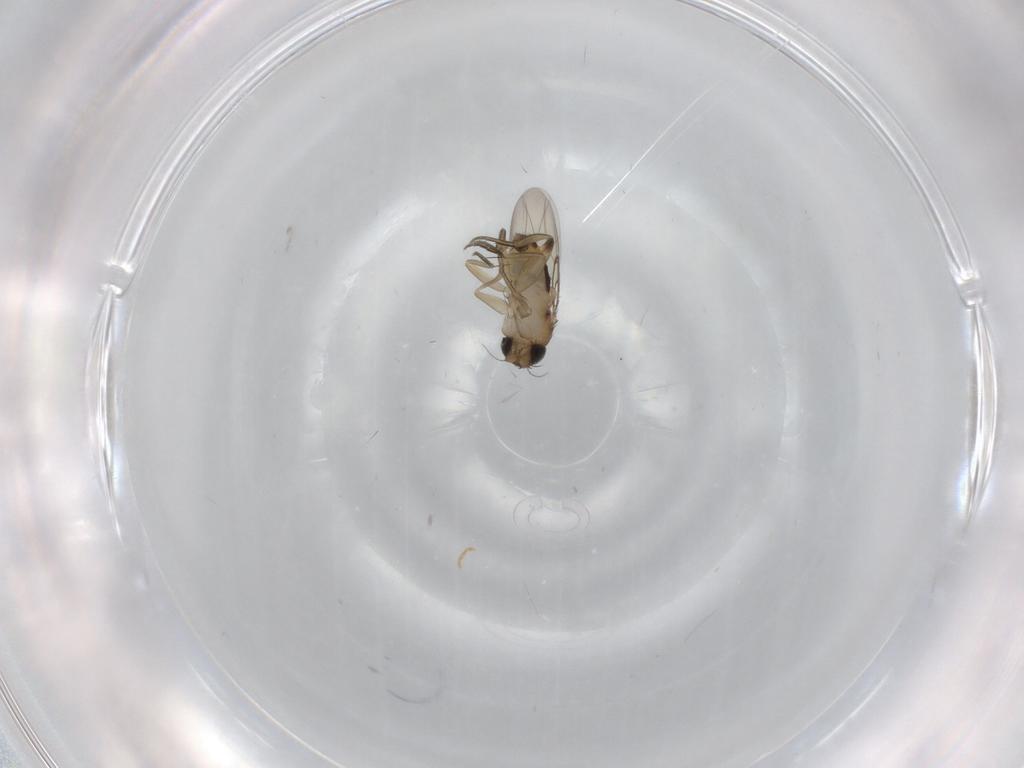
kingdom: Animalia
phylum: Arthropoda
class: Insecta
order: Diptera
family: Phoridae
